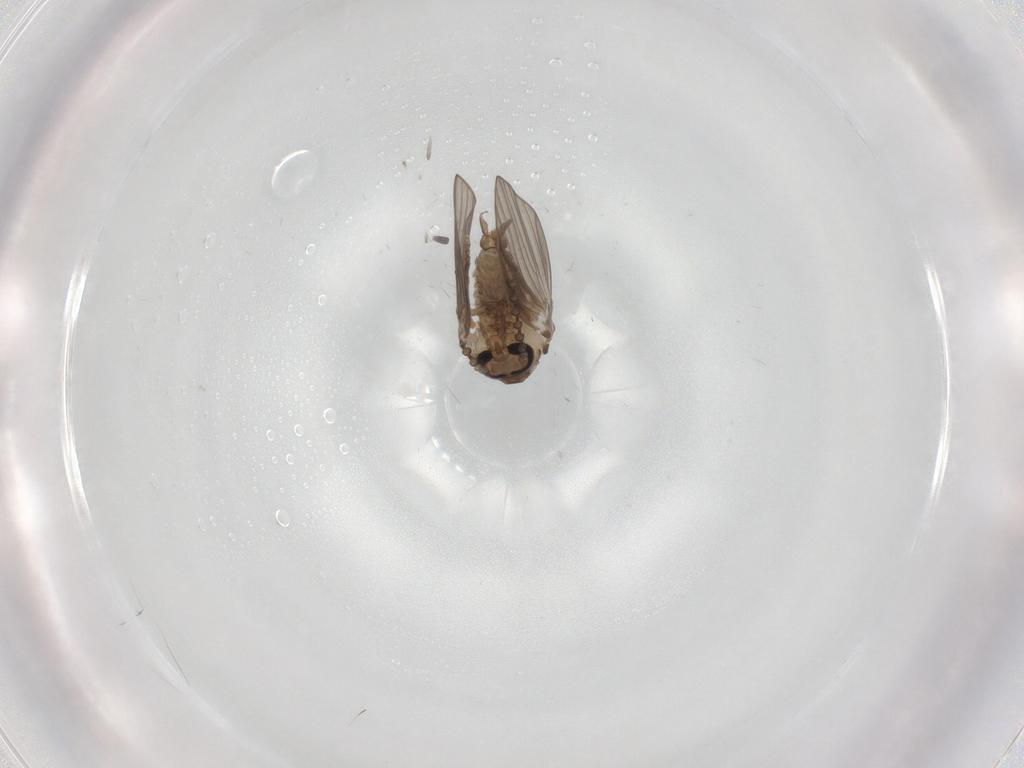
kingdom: Animalia
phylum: Arthropoda
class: Insecta
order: Diptera
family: Psychodidae
